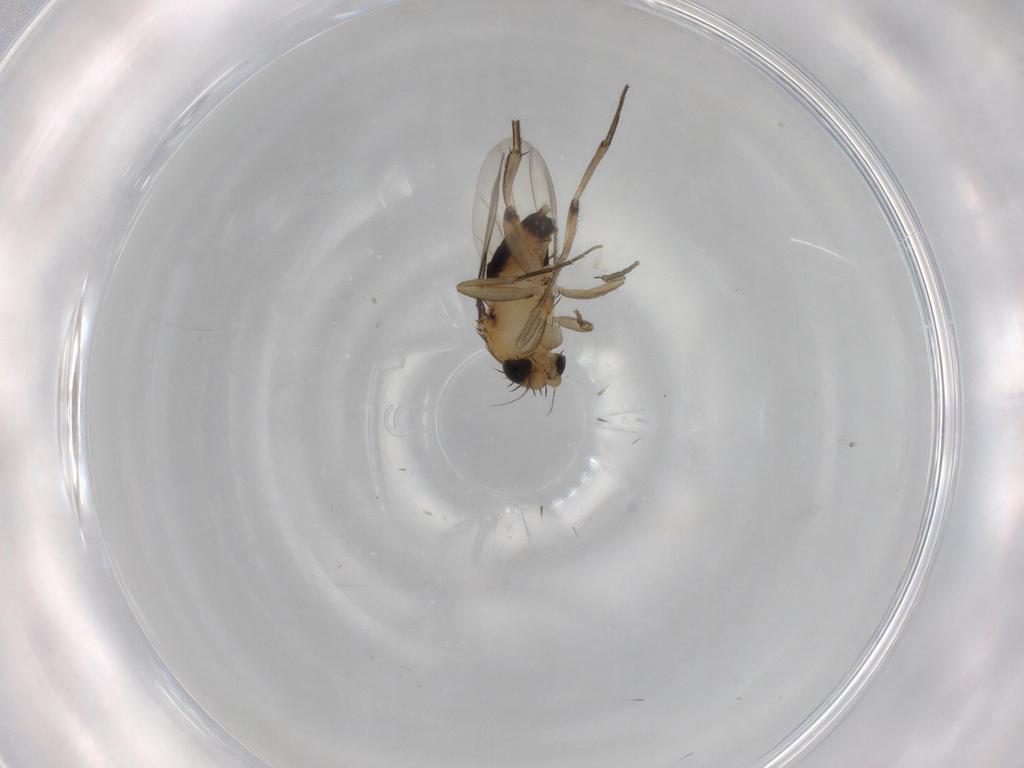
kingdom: Animalia
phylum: Arthropoda
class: Insecta
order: Diptera
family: Phoridae
